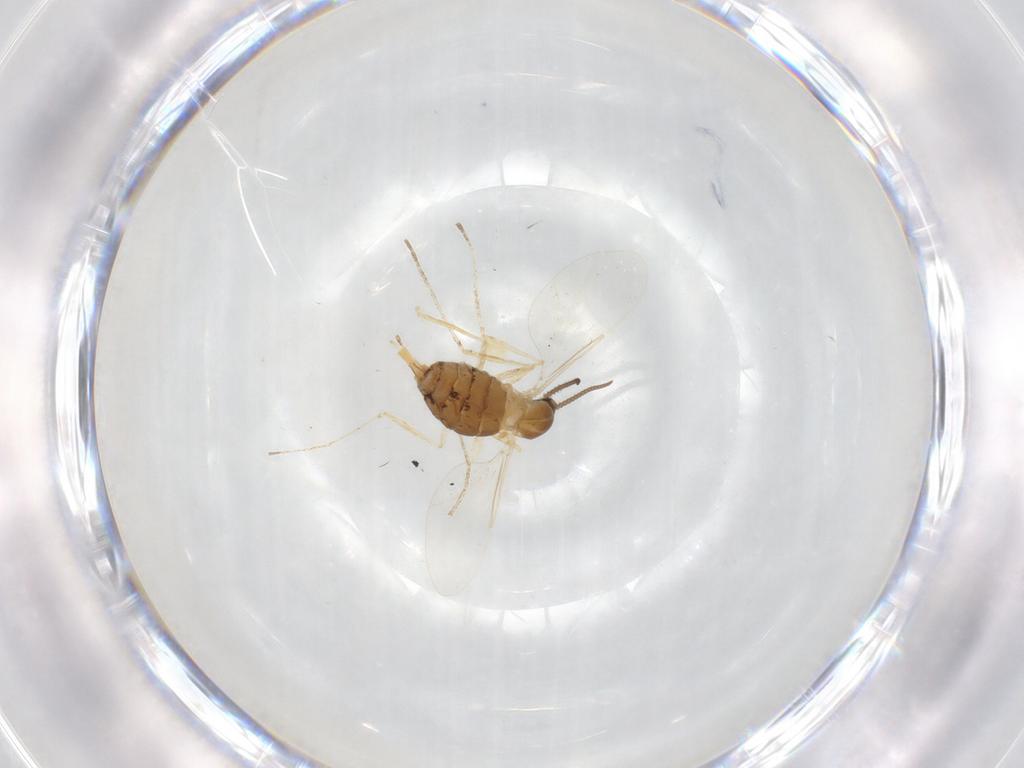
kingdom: Animalia
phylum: Arthropoda
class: Insecta
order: Diptera
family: Cecidomyiidae
